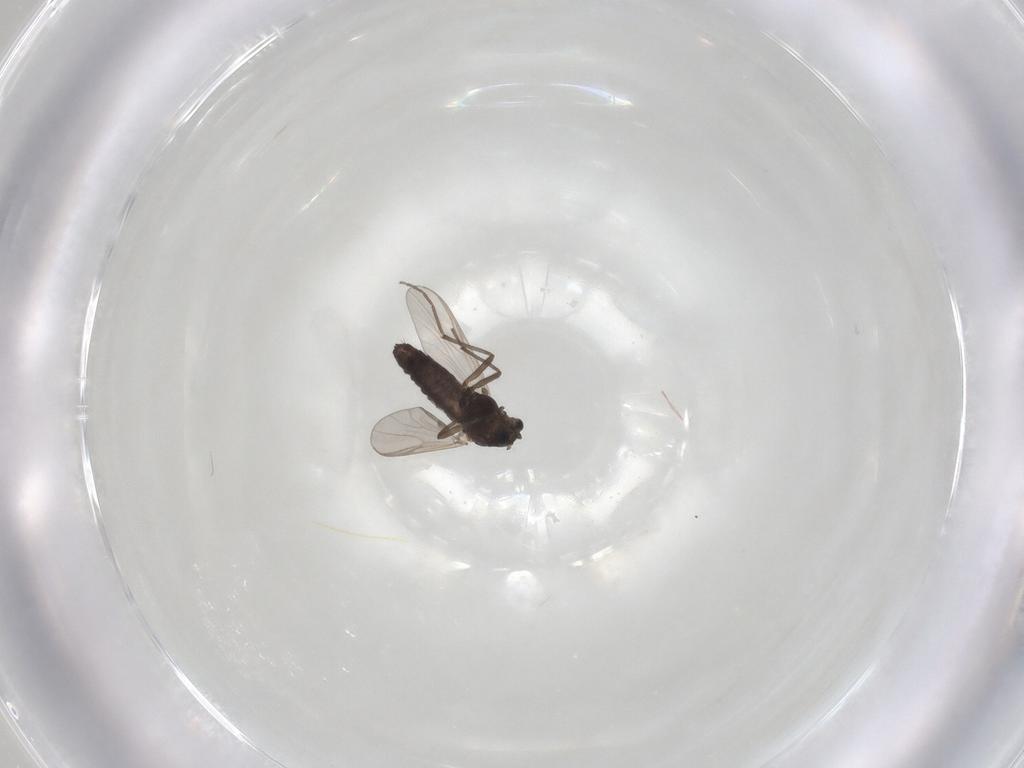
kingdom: Animalia
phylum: Arthropoda
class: Insecta
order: Diptera
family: Chironomidae
